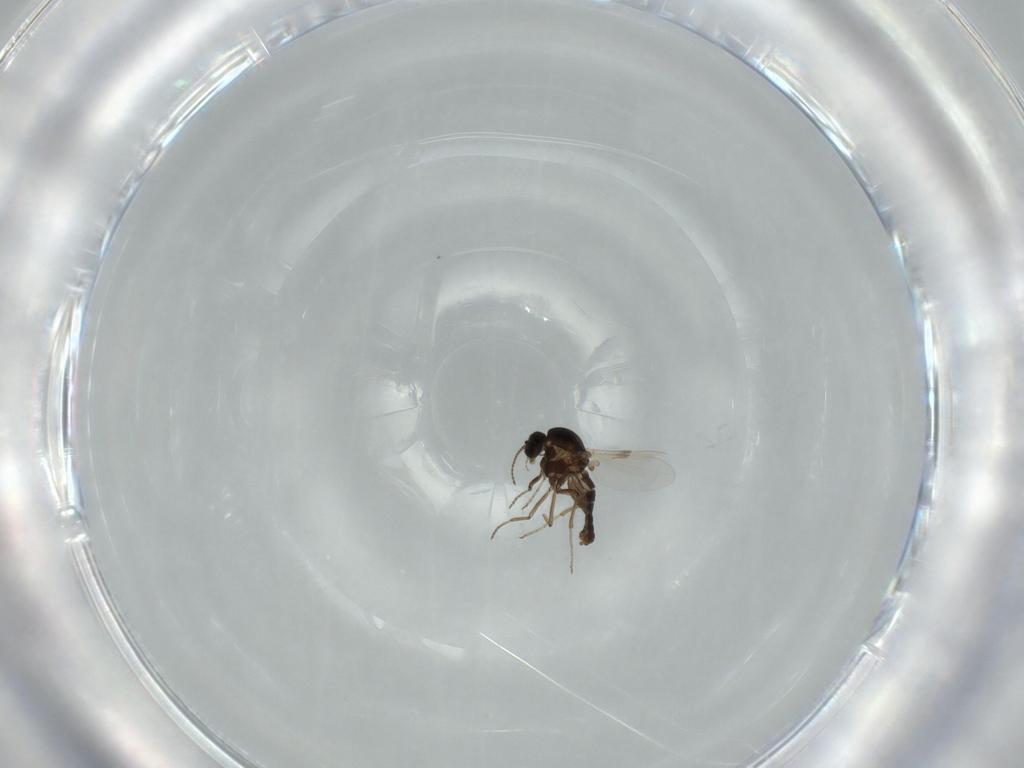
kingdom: Animalia
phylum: Arthropoda
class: Insecta
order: Diptera
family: Ceratopogonidae
